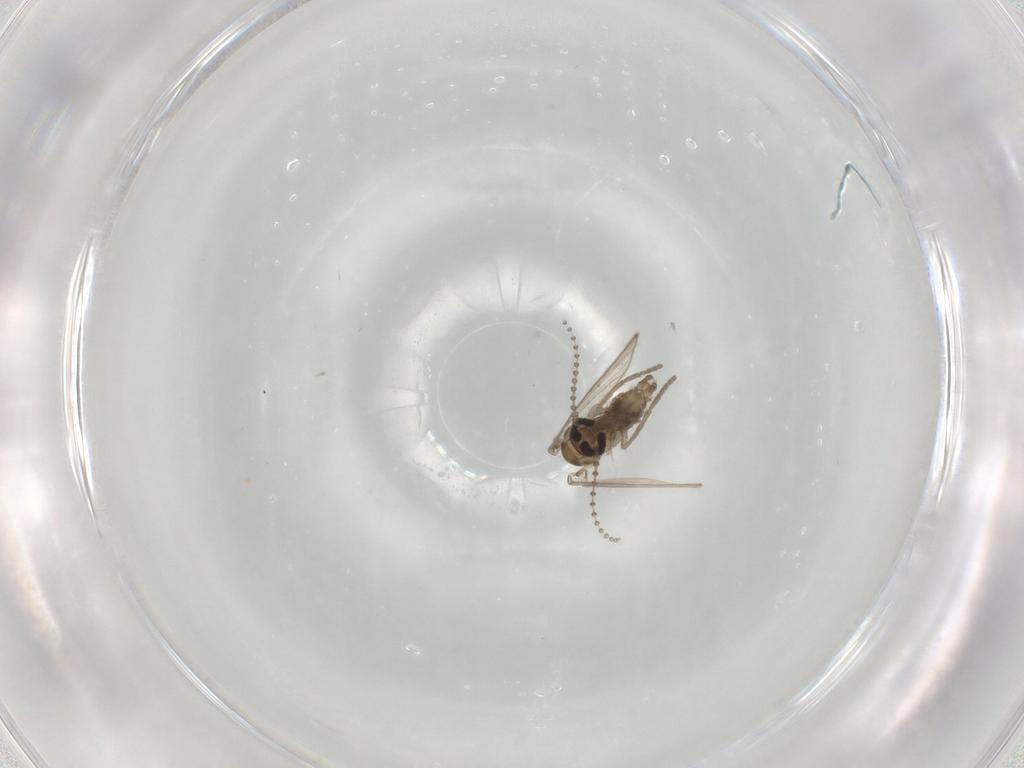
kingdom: Animalia
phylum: Arthropoda
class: Insecta
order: Diptera
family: Psychodidae
